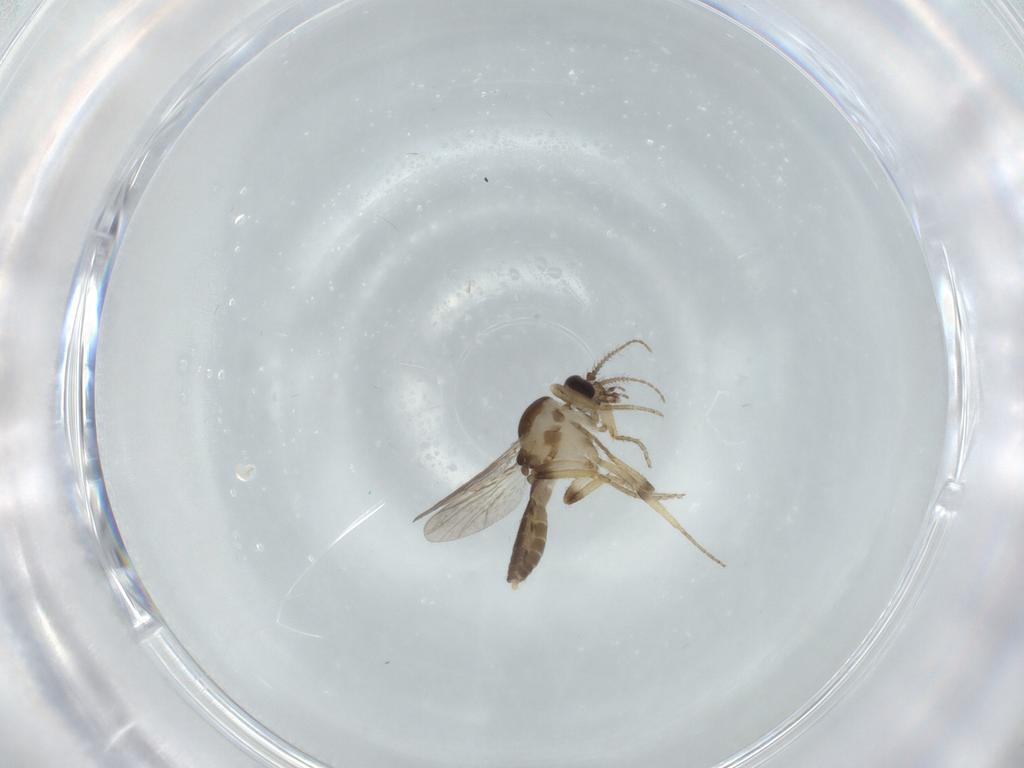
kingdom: Animalia
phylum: Arthropoda
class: Insecta
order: Diptera
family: Ceratopogonidae
